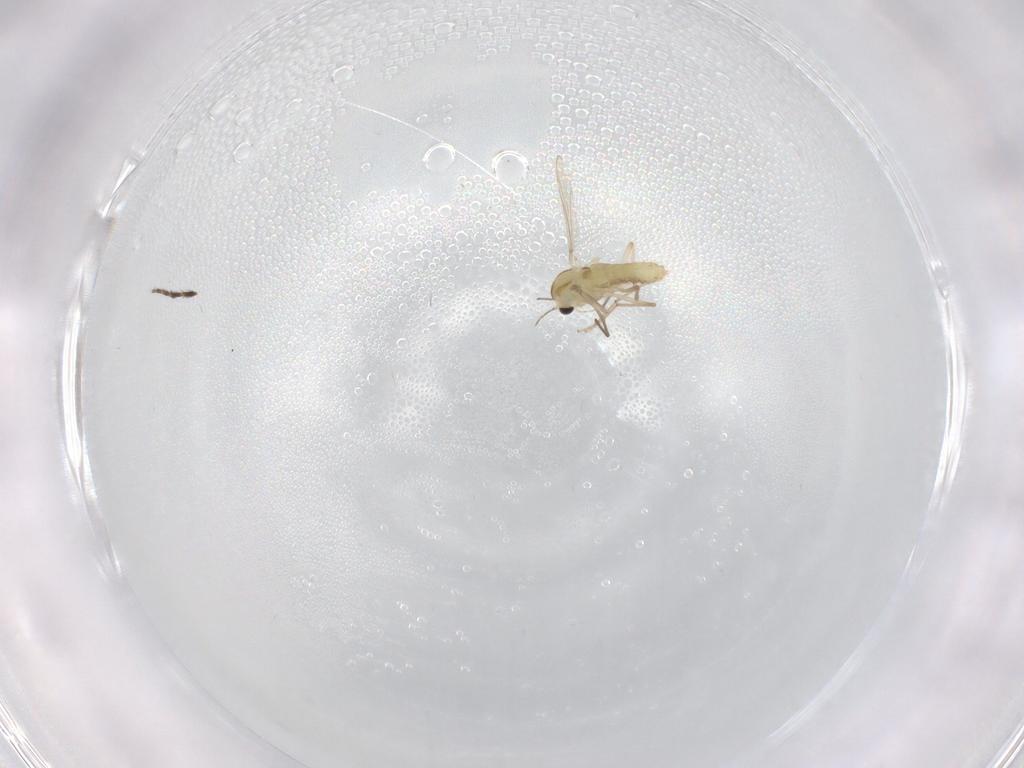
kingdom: Animalia
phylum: Arthropoda
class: Insecta
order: Diptera
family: Chironomidae
